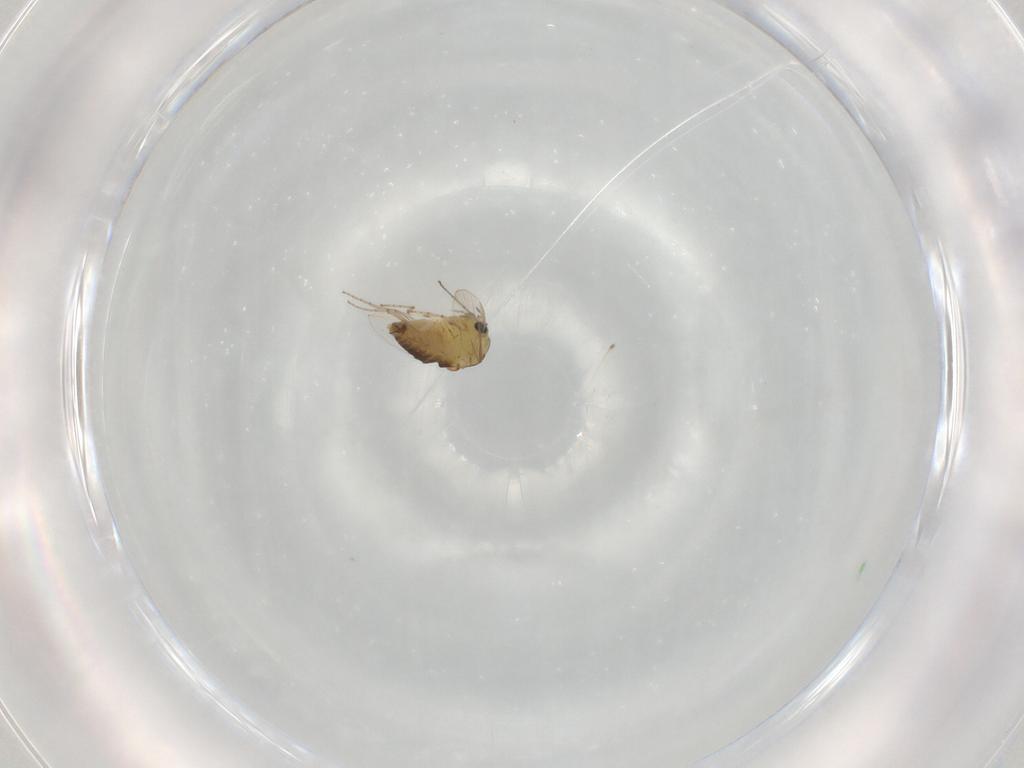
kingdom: Animalia
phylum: Arthropoda
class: Insecta
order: Diptera
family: Chironomidae
